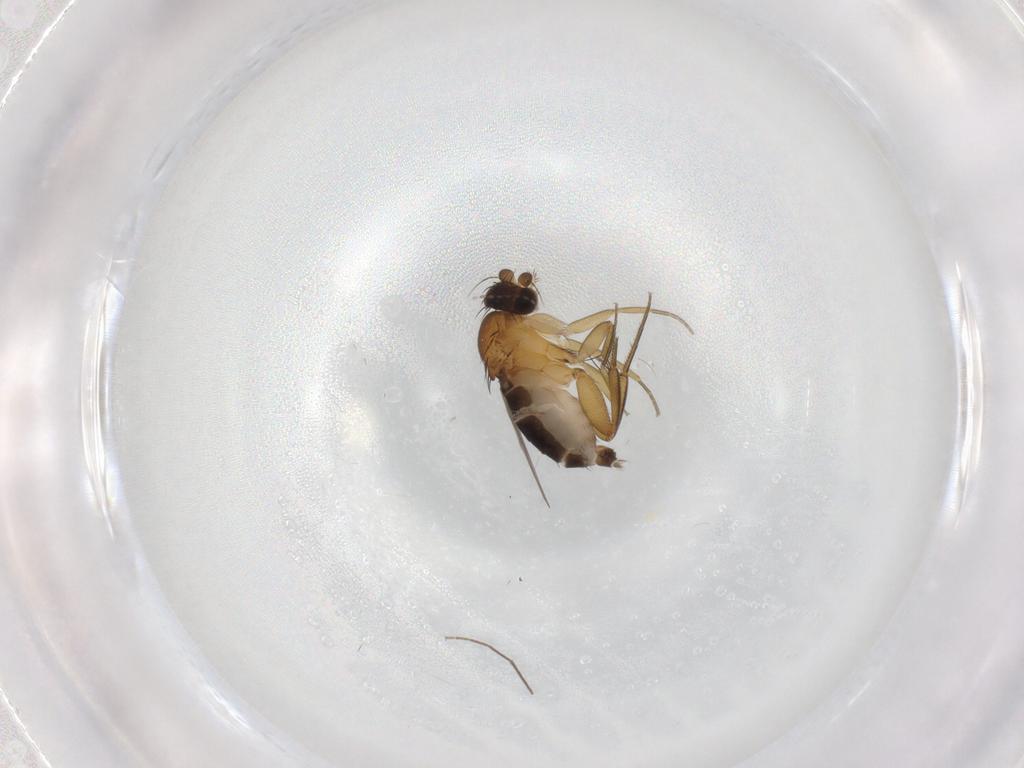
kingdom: Animalia
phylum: Arthropoda
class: Insecta
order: Diptera
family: Phoridae
